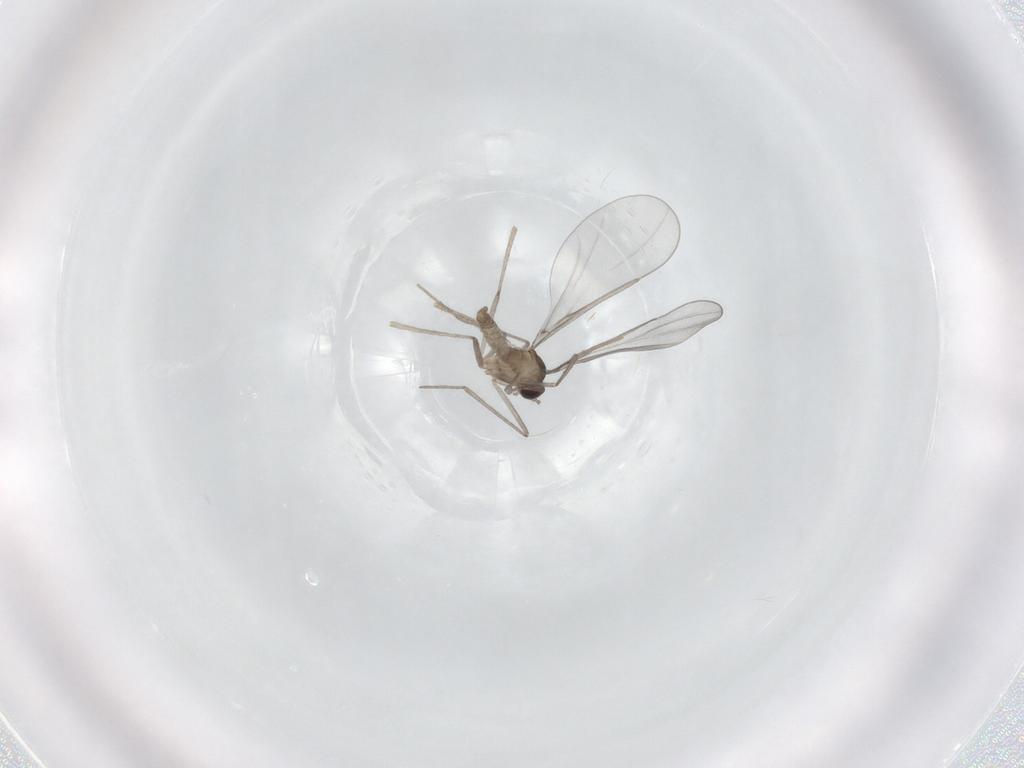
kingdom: Animalia
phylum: Arthropoda
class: Insecta
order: Diptera
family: Cecidomyiidae
